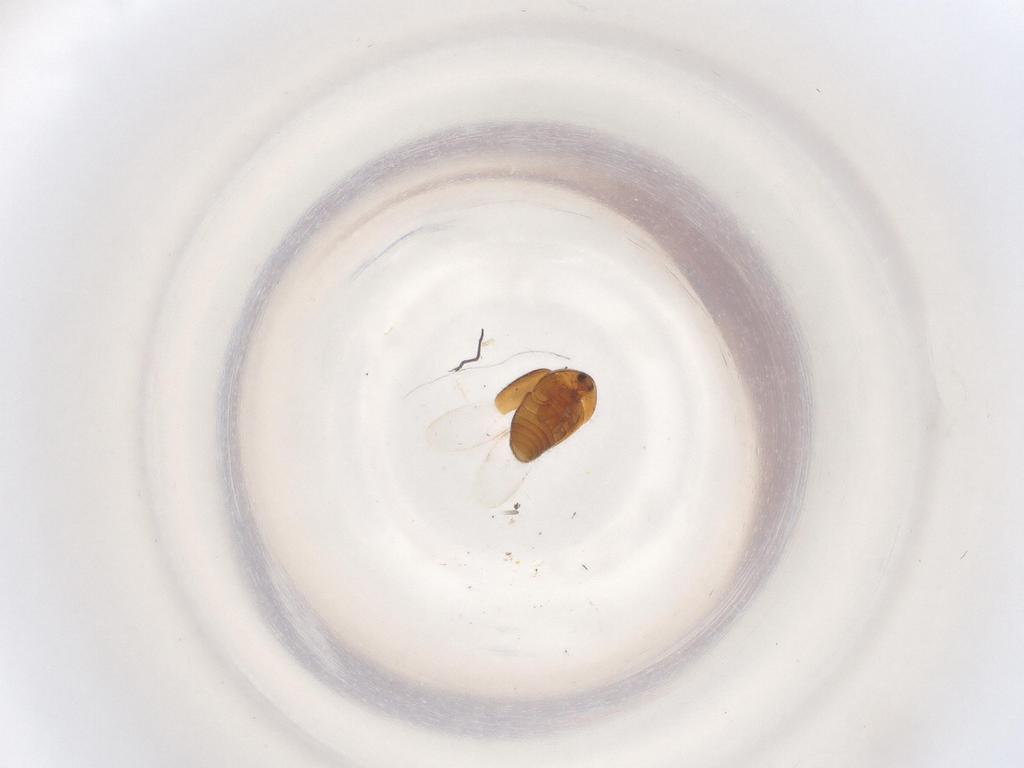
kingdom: Animalia
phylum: Arthropoda
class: Insecta
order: Coleoptera
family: Corylophidae
